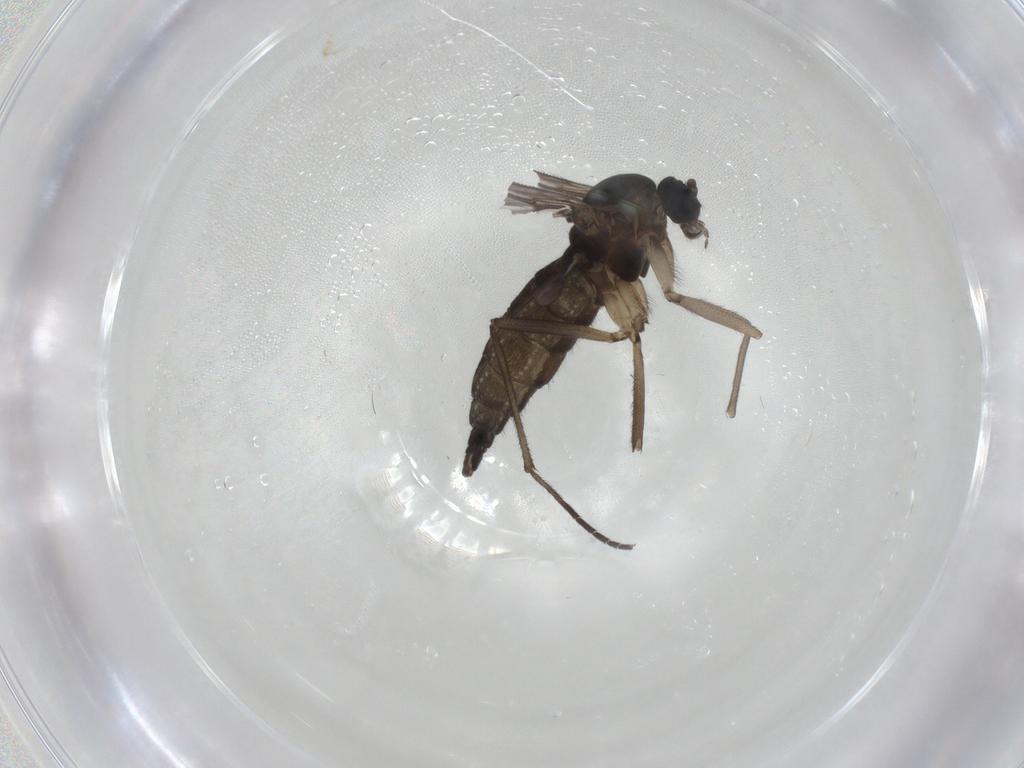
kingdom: Animalia
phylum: Arthropoda
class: Insecta
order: Diptera
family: Sciaridae
